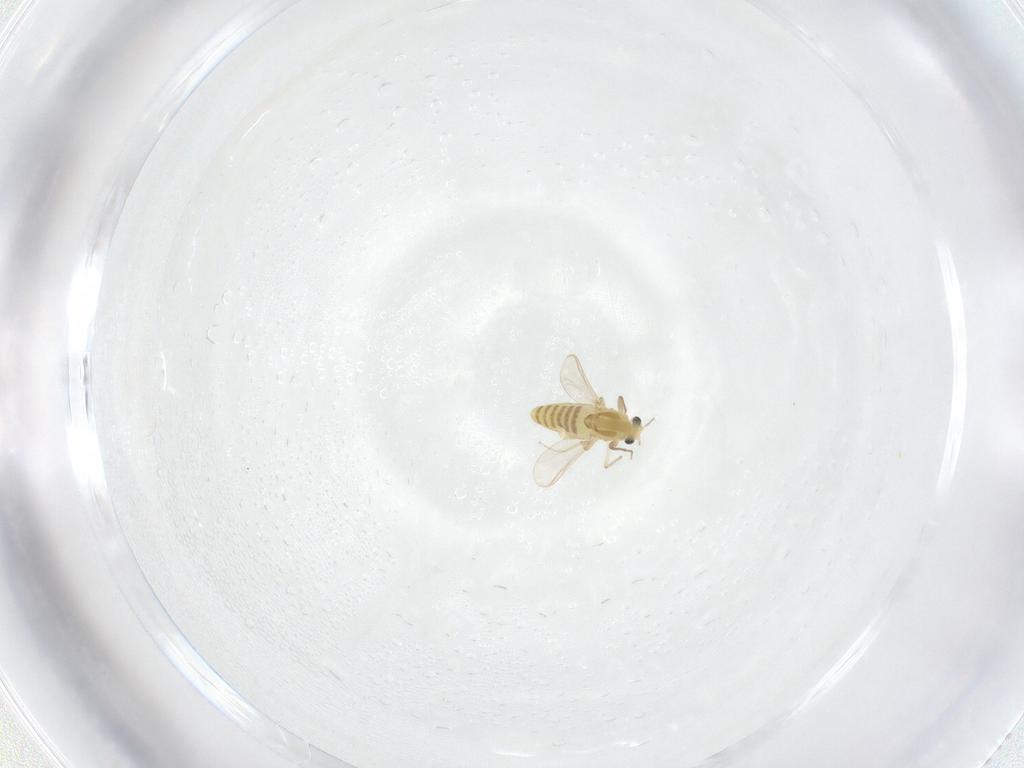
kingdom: Animalia
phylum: Arthropoda
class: Insecta
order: Diptera
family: Chironomidae
